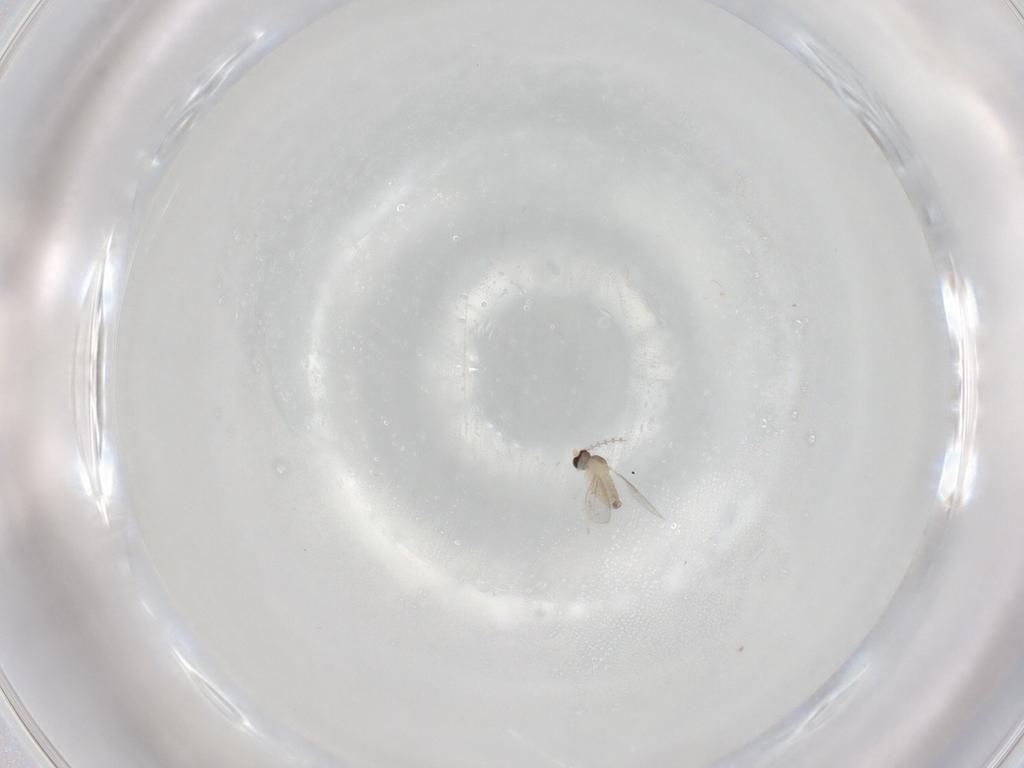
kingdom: Animalia
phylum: Arthropoda
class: Insecta
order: Diptera
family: Cecidomyiidae
